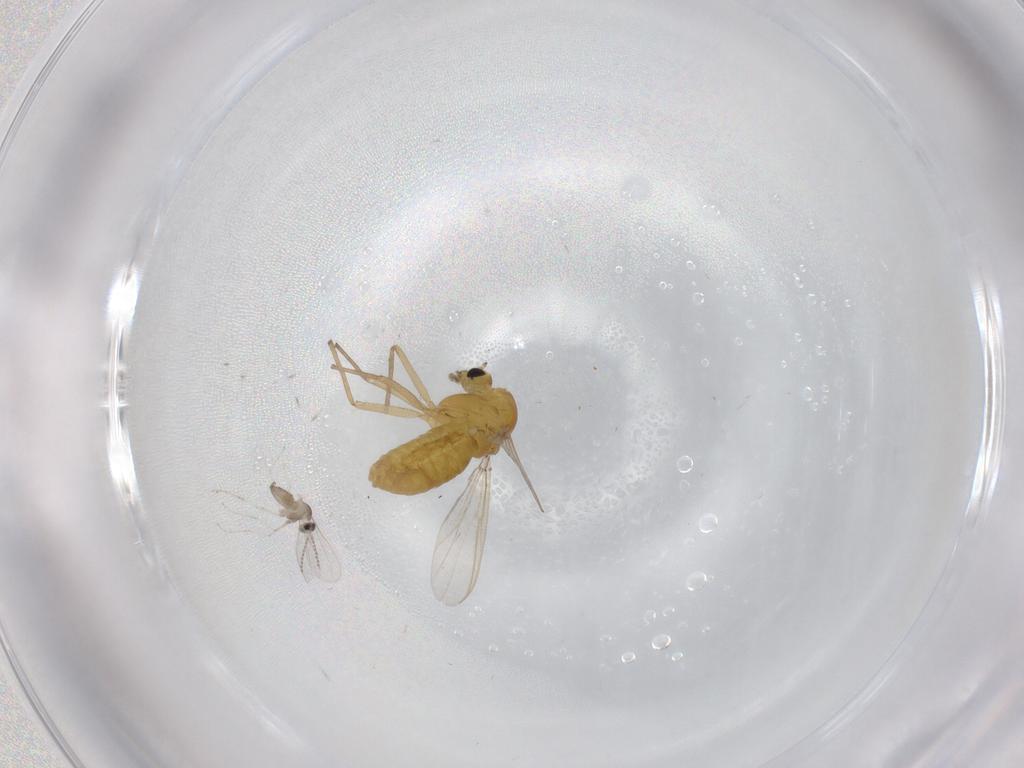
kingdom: Animalia
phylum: Arthropoda
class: Insecta
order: Diptera
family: Chironomidae
